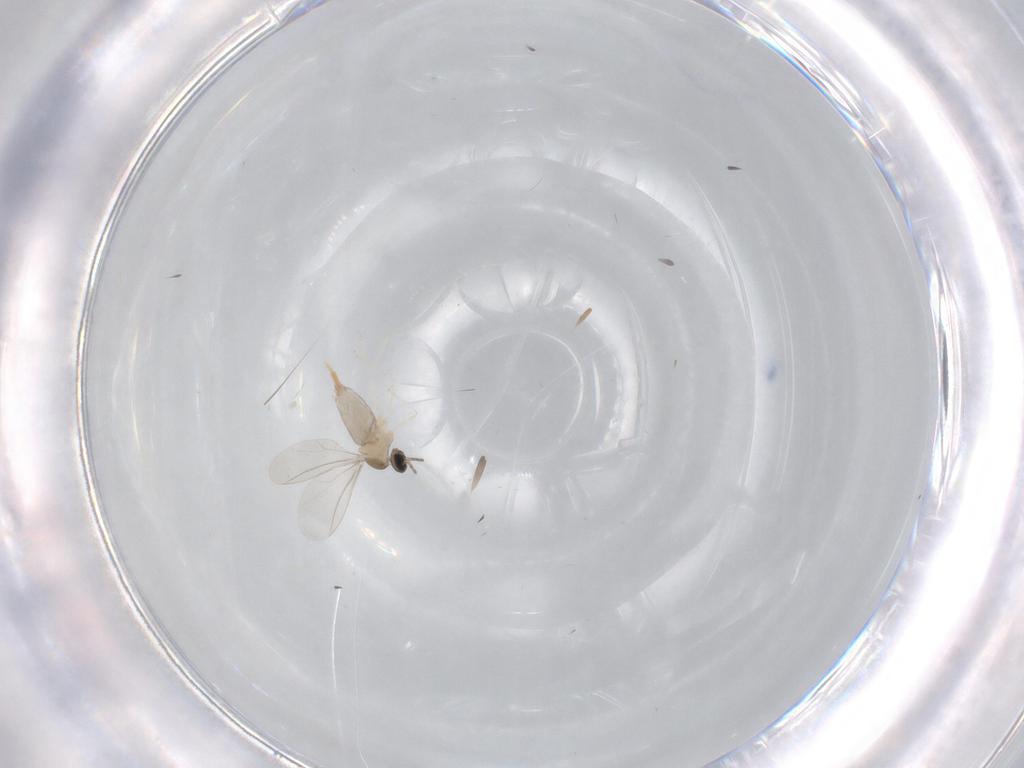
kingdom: Animalia
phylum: Arthropoda
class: Insecta
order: Diptera
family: Cecidomyiidae
